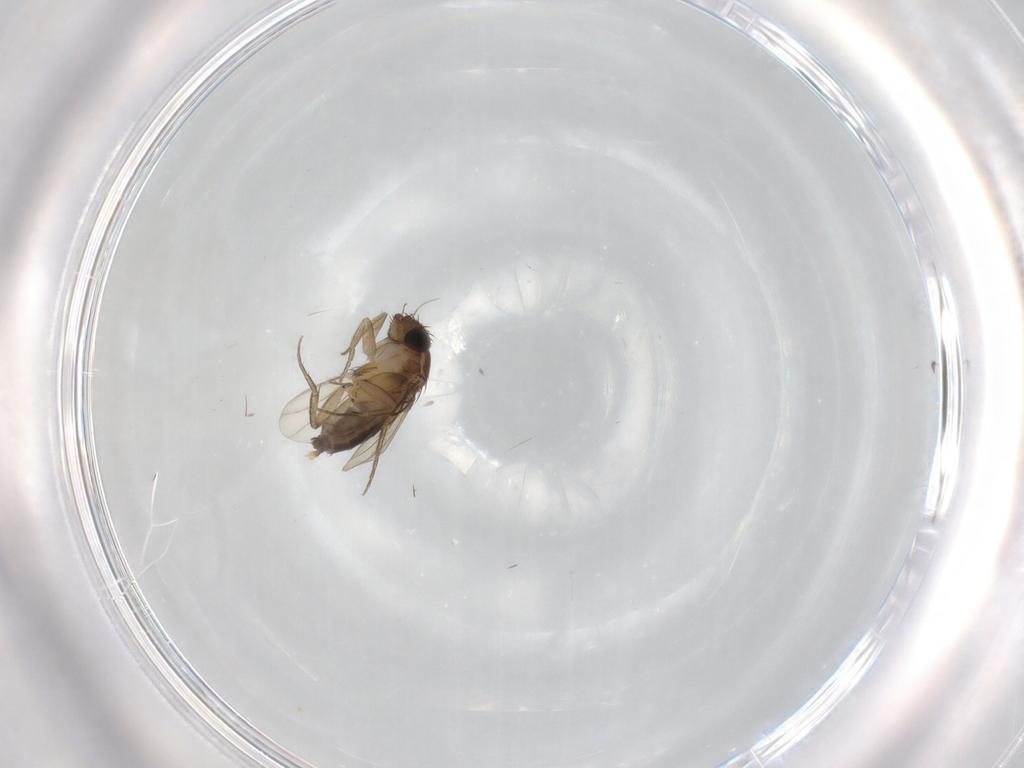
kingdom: Animalia
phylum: Arthropoda
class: Insecta
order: Diptera
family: Phoridae
